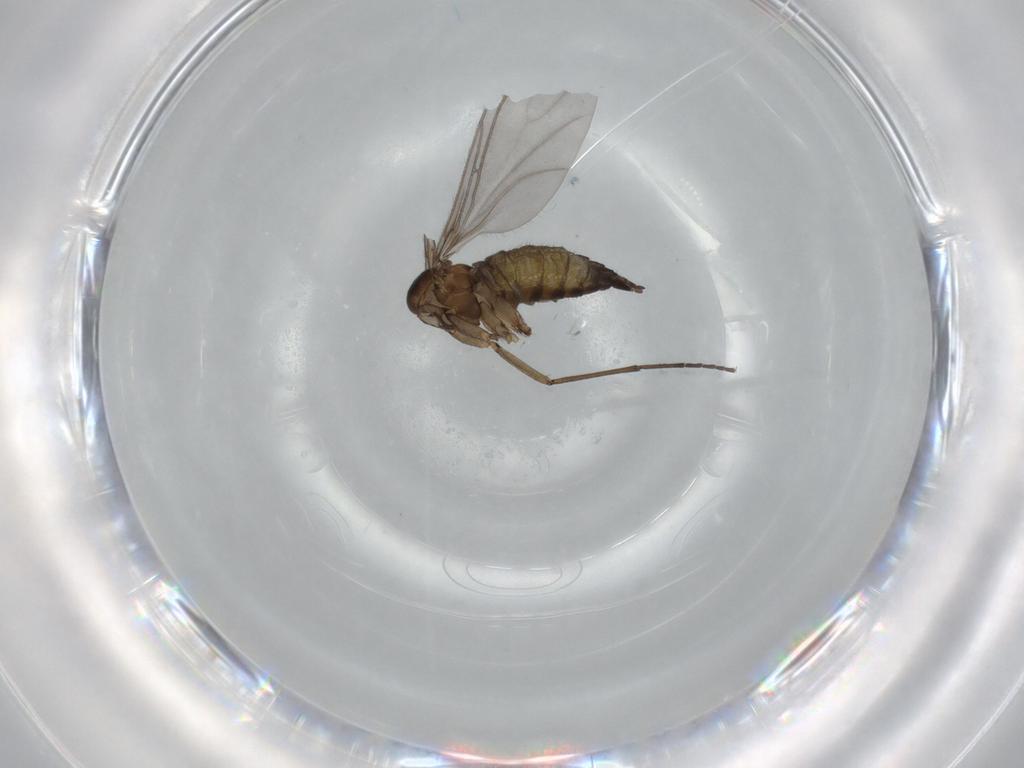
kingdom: Animalia
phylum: Arthropoda
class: Insecta
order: Diptera
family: Sciaridae
